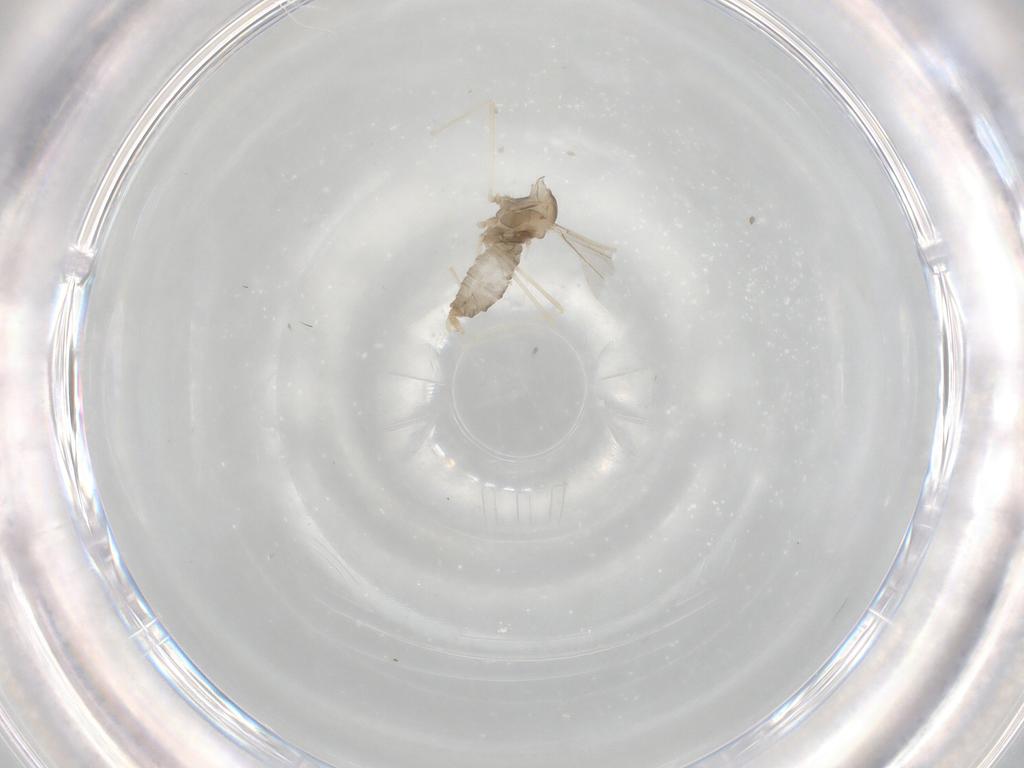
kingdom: Animalia
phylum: Arthropoda
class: Insecta
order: Diptera
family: Cecidomyiidae
